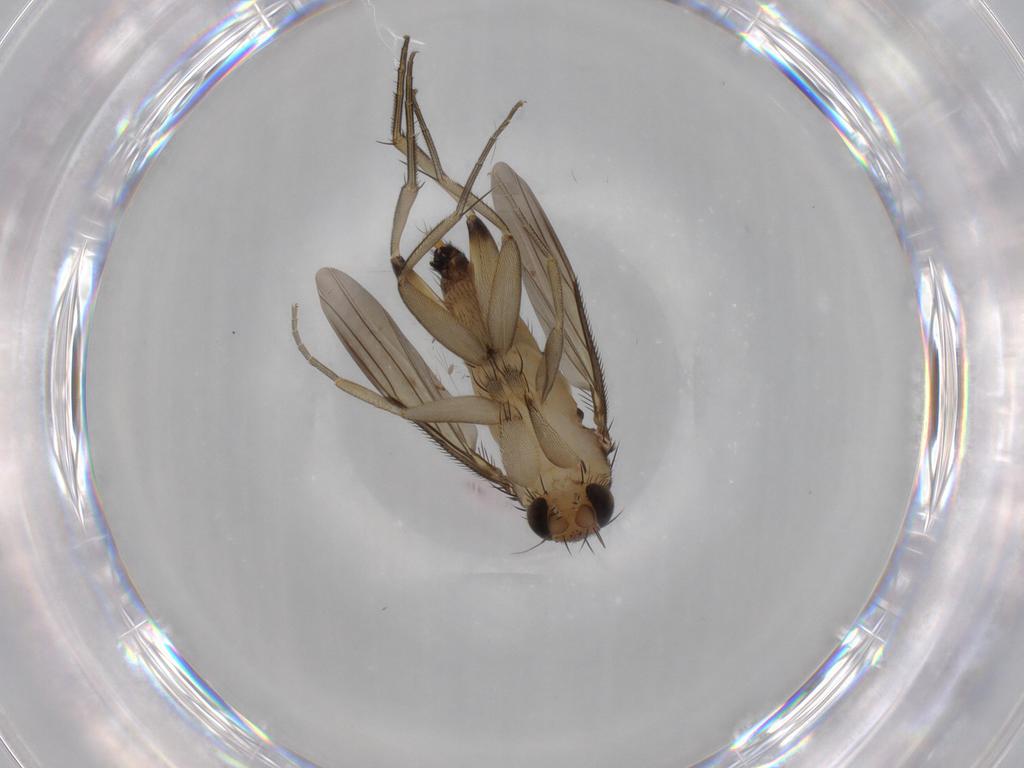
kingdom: Animalia
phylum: Arthropoda
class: Insecta
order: Diptera
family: Phoridae
